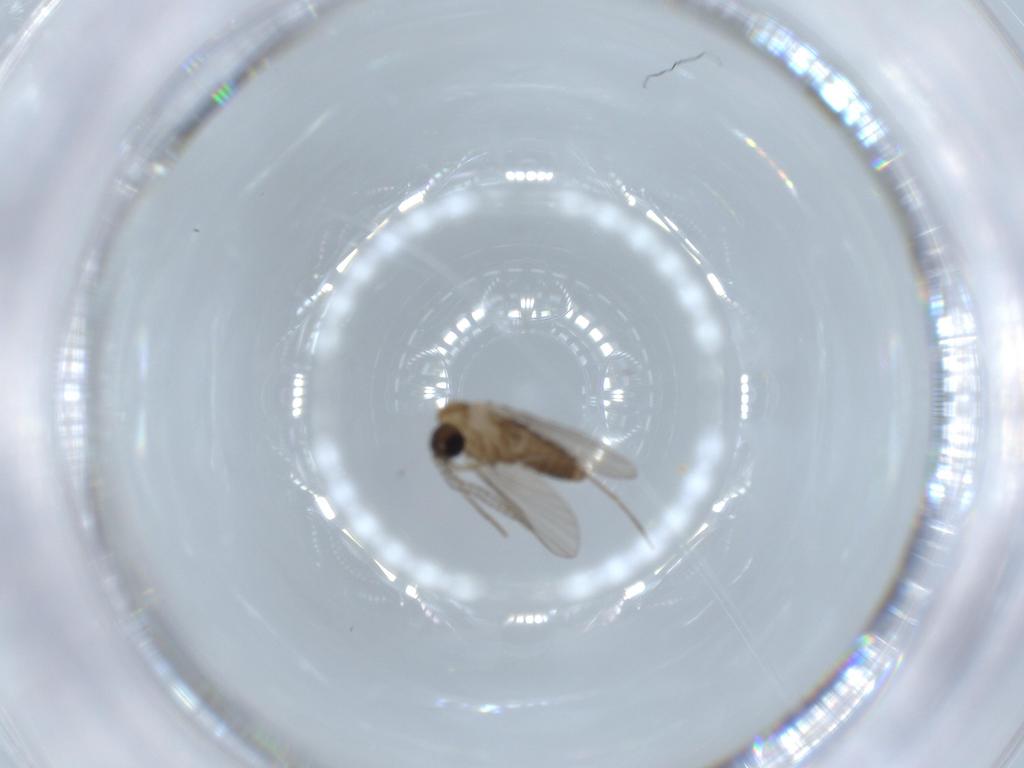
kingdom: Animalia
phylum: Arthropoda
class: Insecta
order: Diptera
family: Psychodidae
